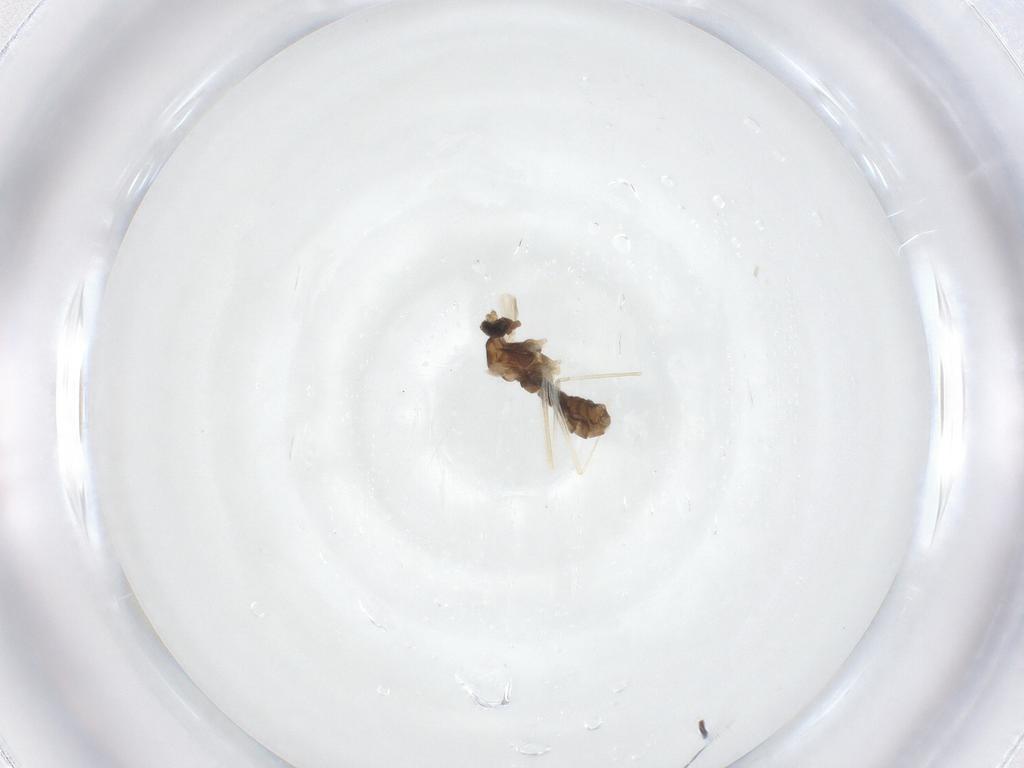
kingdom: Animalia
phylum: Arthropoda
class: Insecta
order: Diptera
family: Cecidomyiidae
